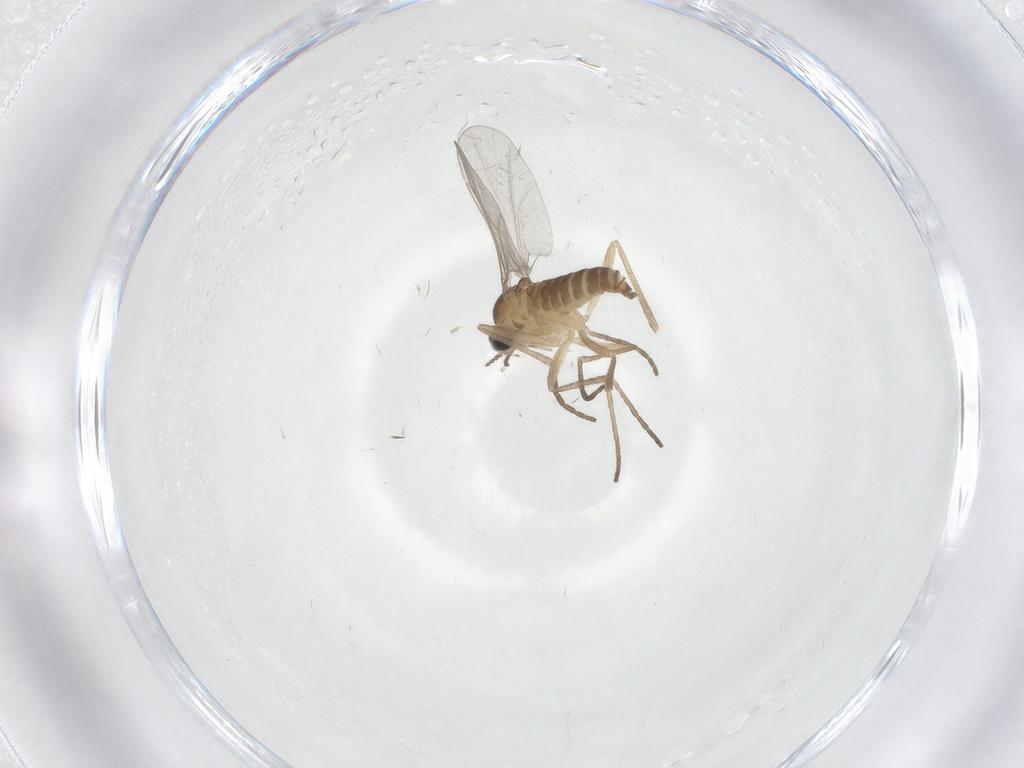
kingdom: Animalia
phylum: Arthropoda
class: Insecta
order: Diptera
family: Cecidomyiidae
